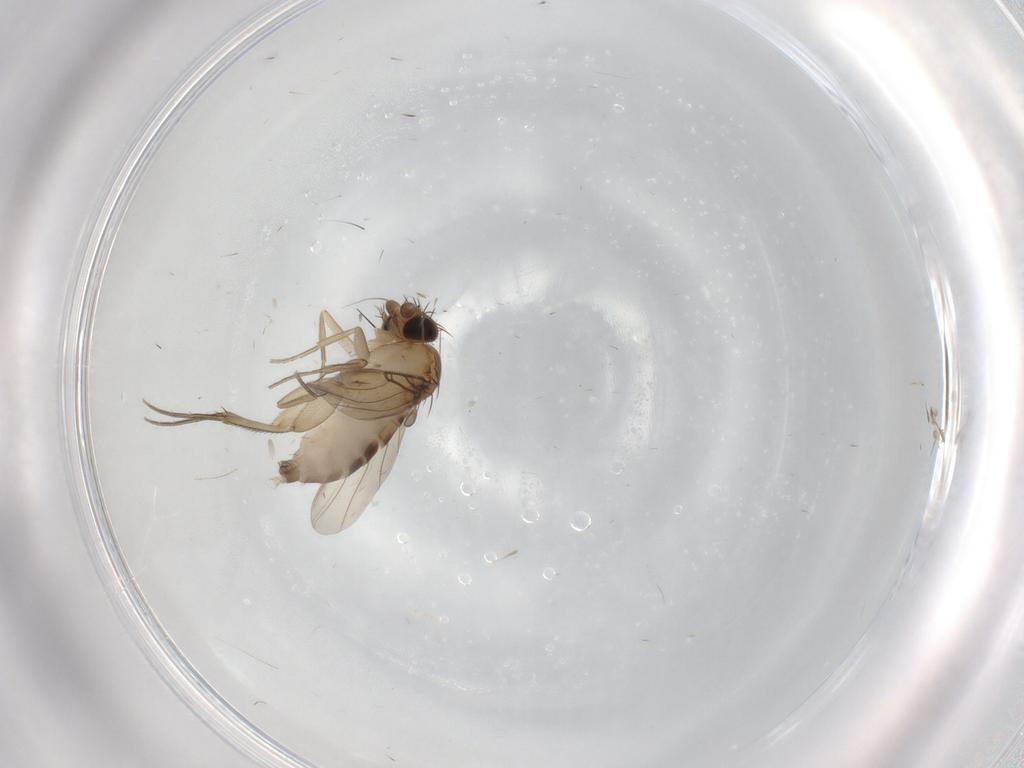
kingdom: Animalia
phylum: Arthropoda
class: Insecta
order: Diptera
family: Phoridae
